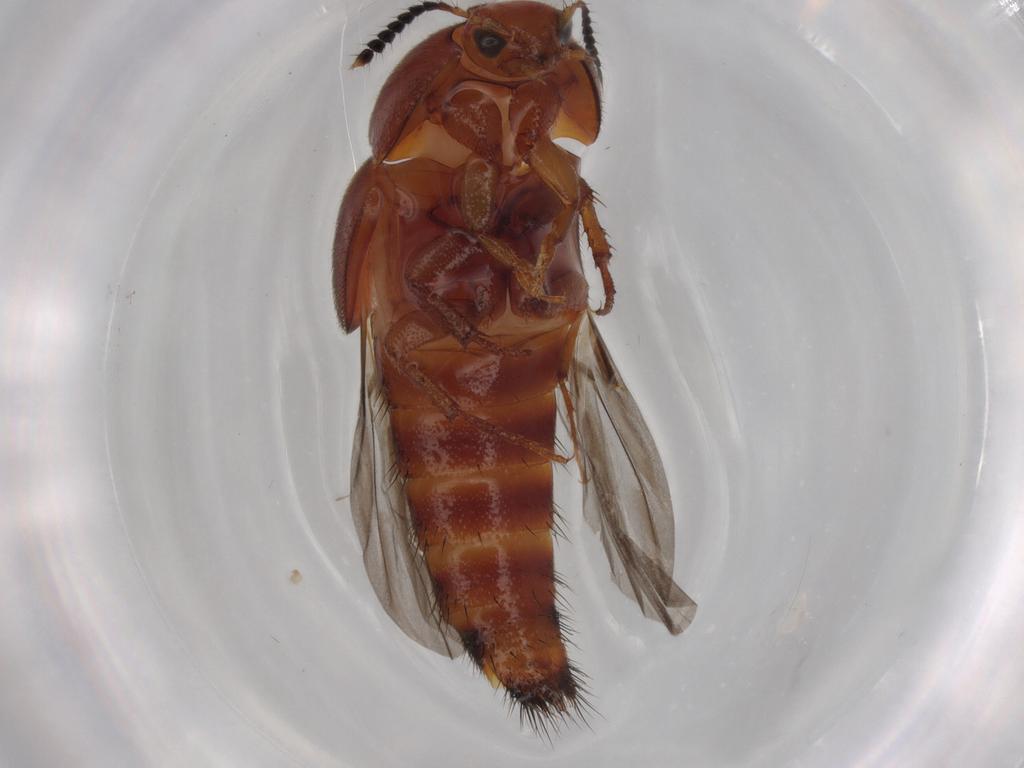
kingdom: Animalia
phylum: Arthropoda
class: Insecta
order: Coleoptera
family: Staphylinidae
